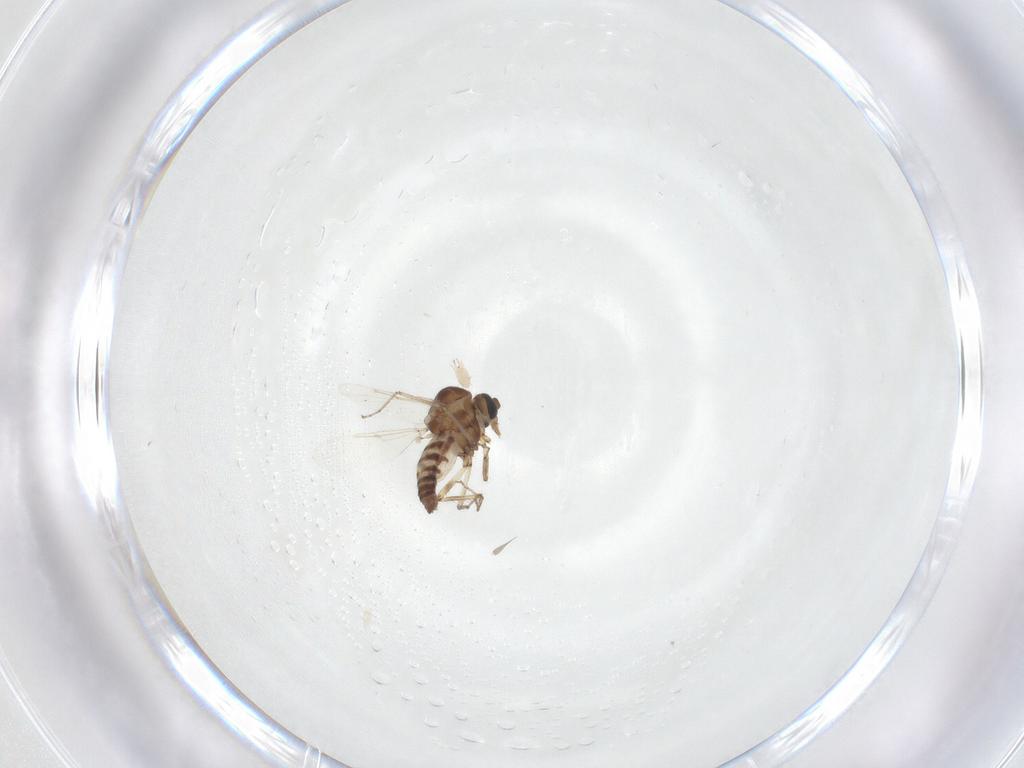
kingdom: Animalia
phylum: Arthropoda
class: Insecta
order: Diptera
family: Ceratopogonidae
